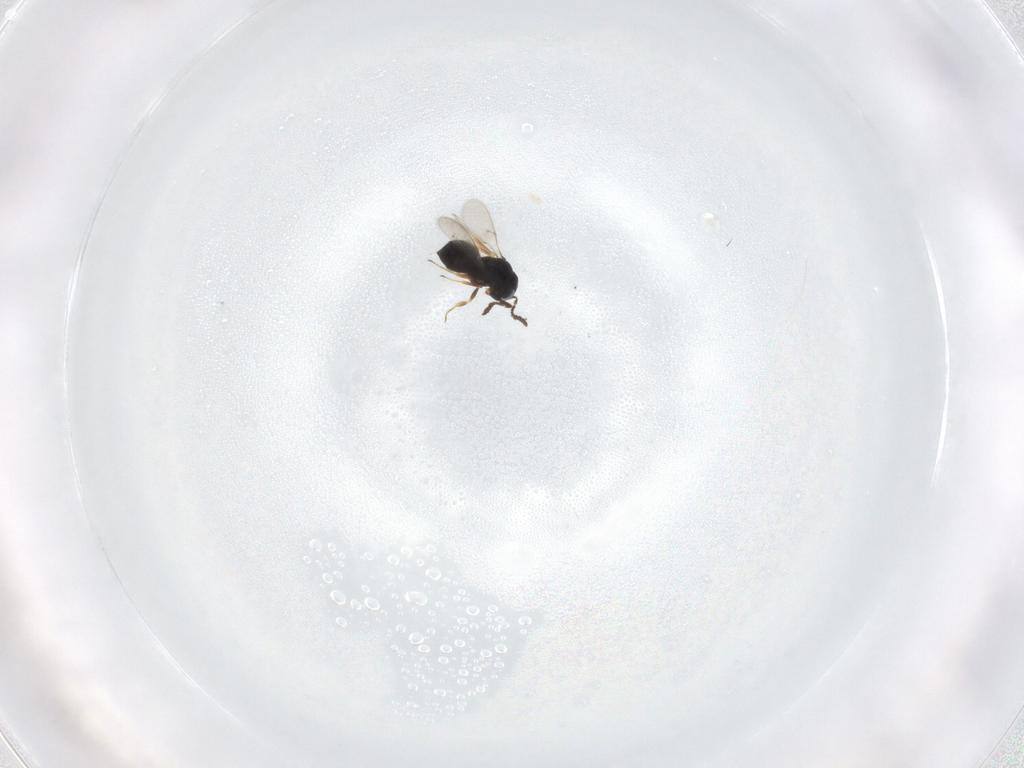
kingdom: Animalia
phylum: Arthropoda
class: Insecta
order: Hymenoptera
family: Scelionidae
